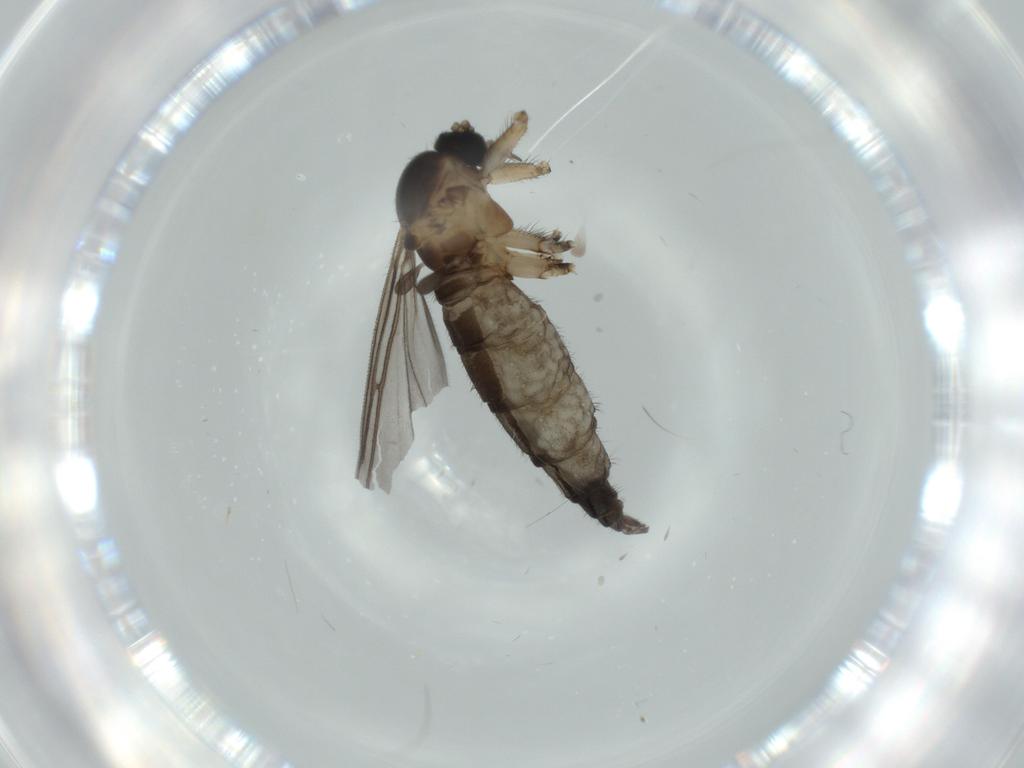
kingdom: Animalia
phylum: Arthropoda
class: Insecta
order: Diptera
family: Sciaridae
